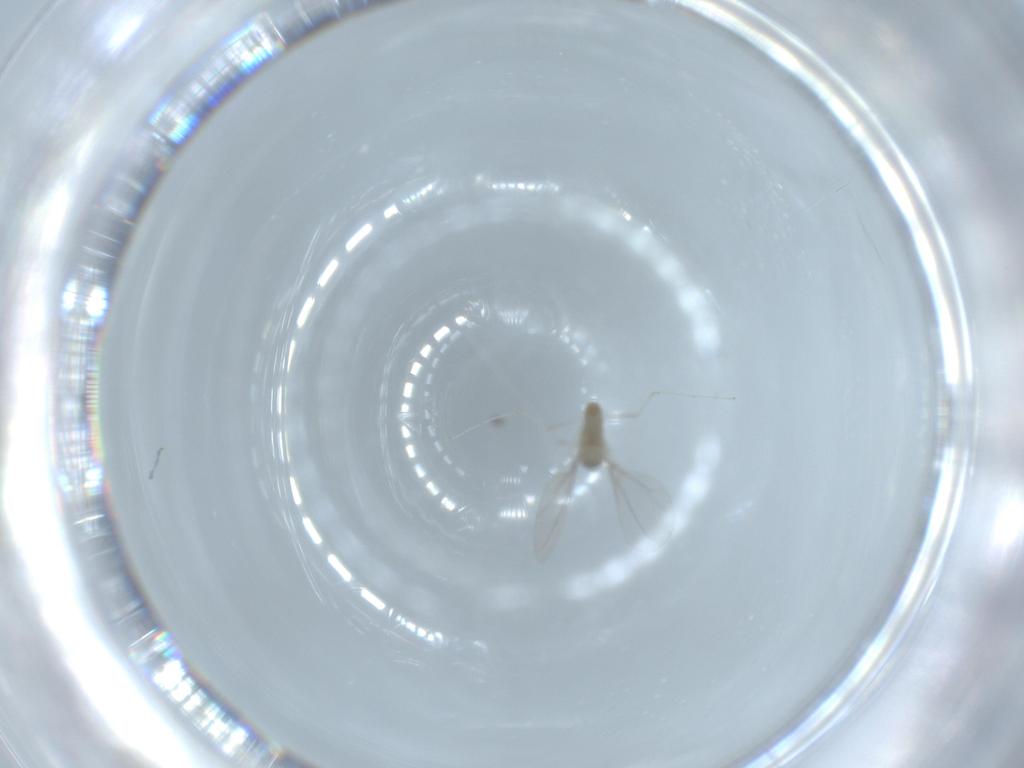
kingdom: Animalia
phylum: Arthropoda
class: Insecta
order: Diptera
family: Cecidomyiidae
